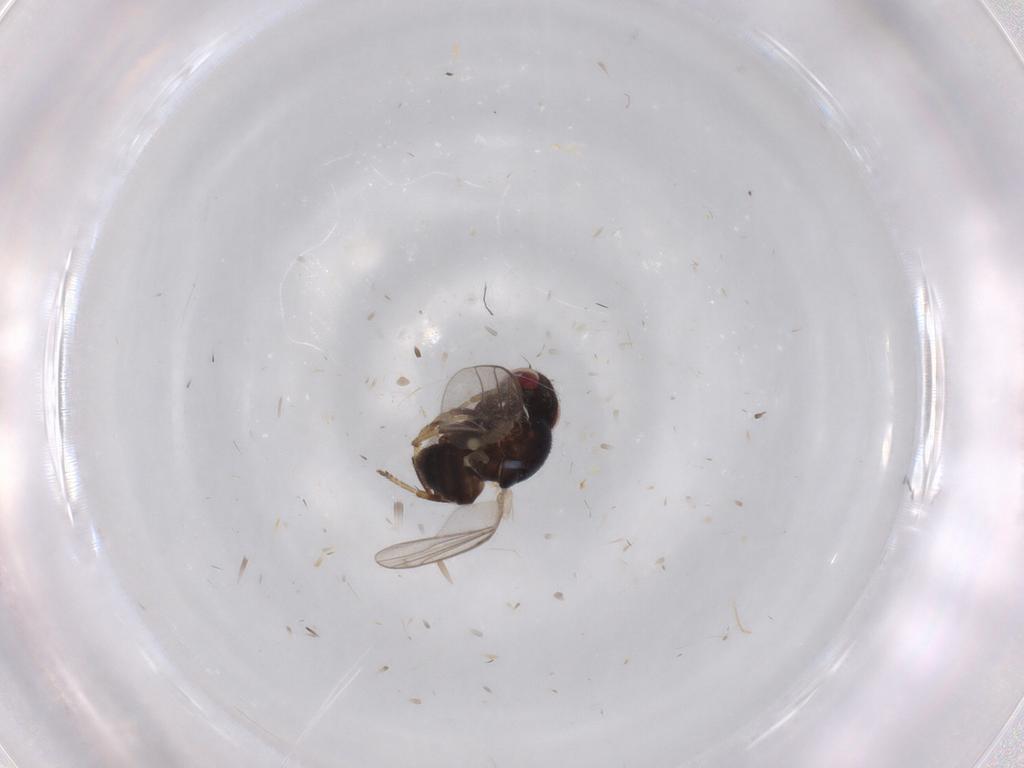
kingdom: Animalia
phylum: Arthropoda
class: Insecta
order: Diptera
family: Chloropidae
